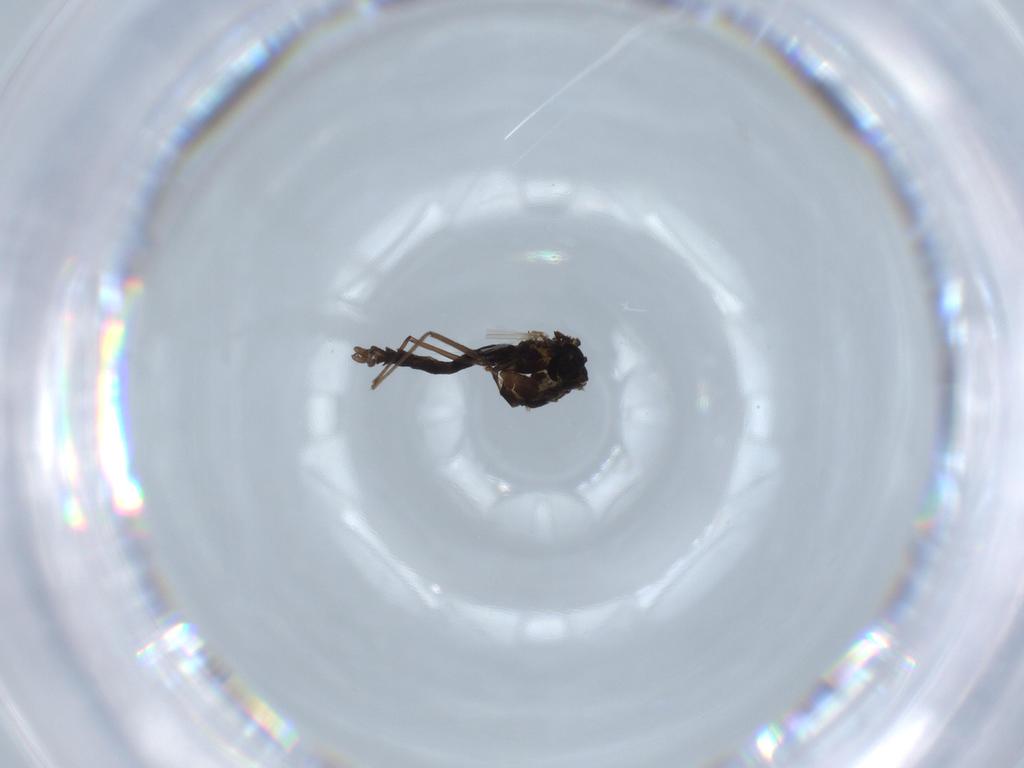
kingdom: Animalia
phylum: Arthropoda
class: Insecta
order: Diptera
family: Chironomidae
